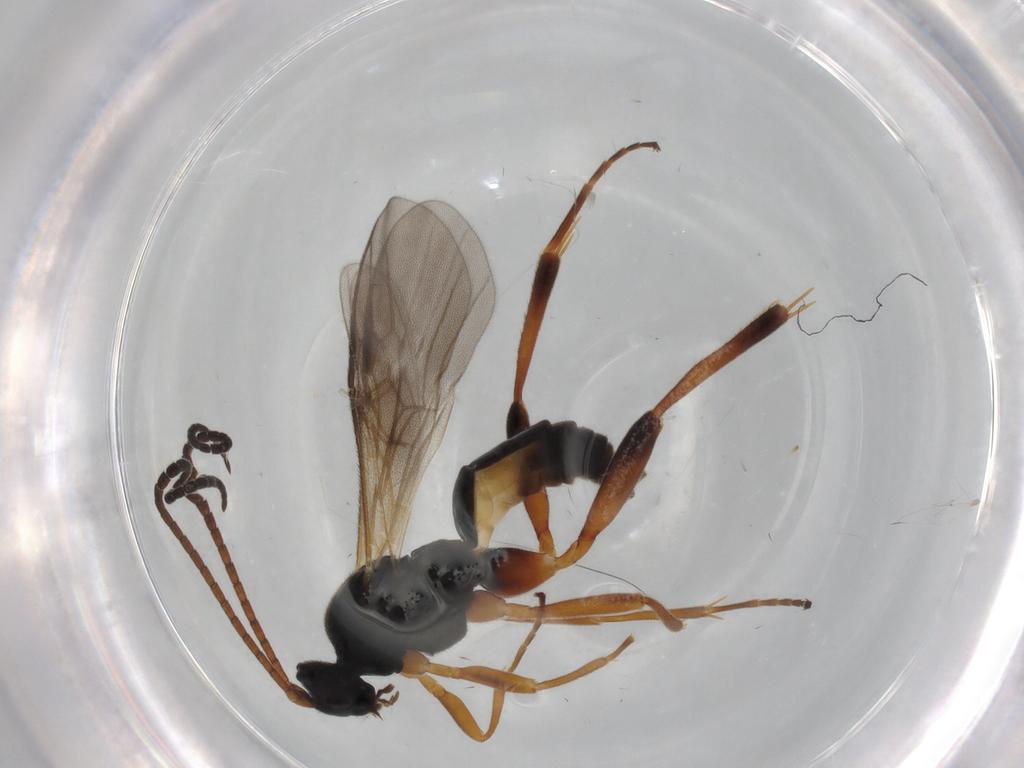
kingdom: Animalia
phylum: Arthropoda
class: Insecta
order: Hymenoptera
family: Braconidae
